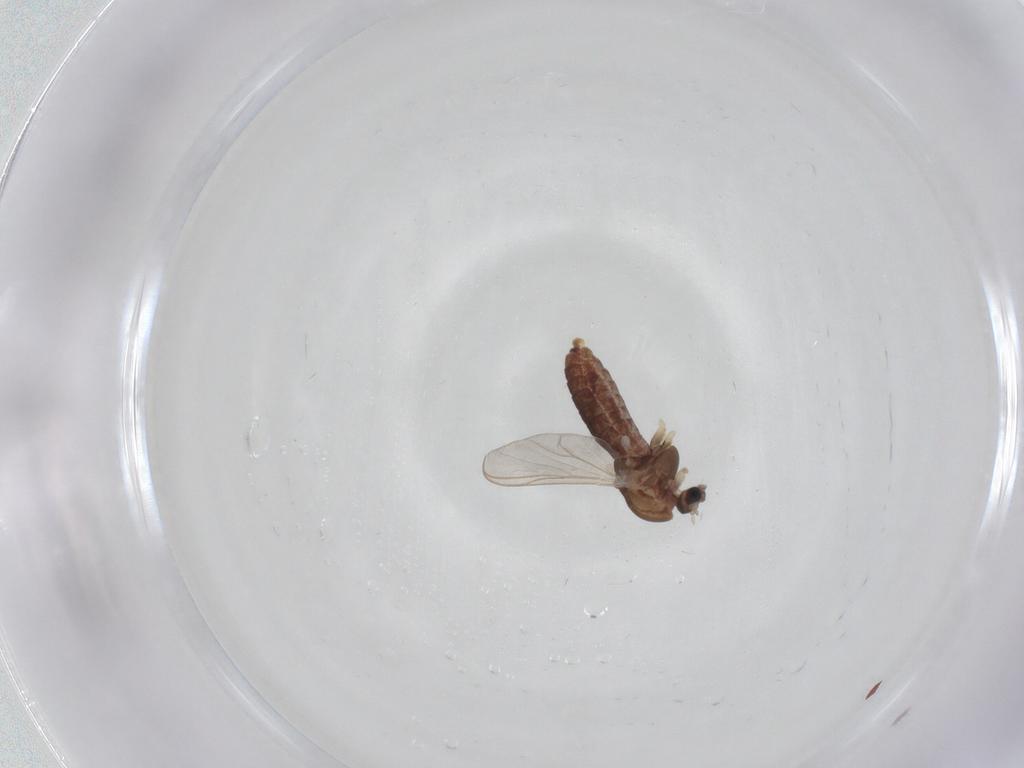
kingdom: Animalia
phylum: Arthropoda
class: Insecta
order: Diptera
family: Chironomidae
